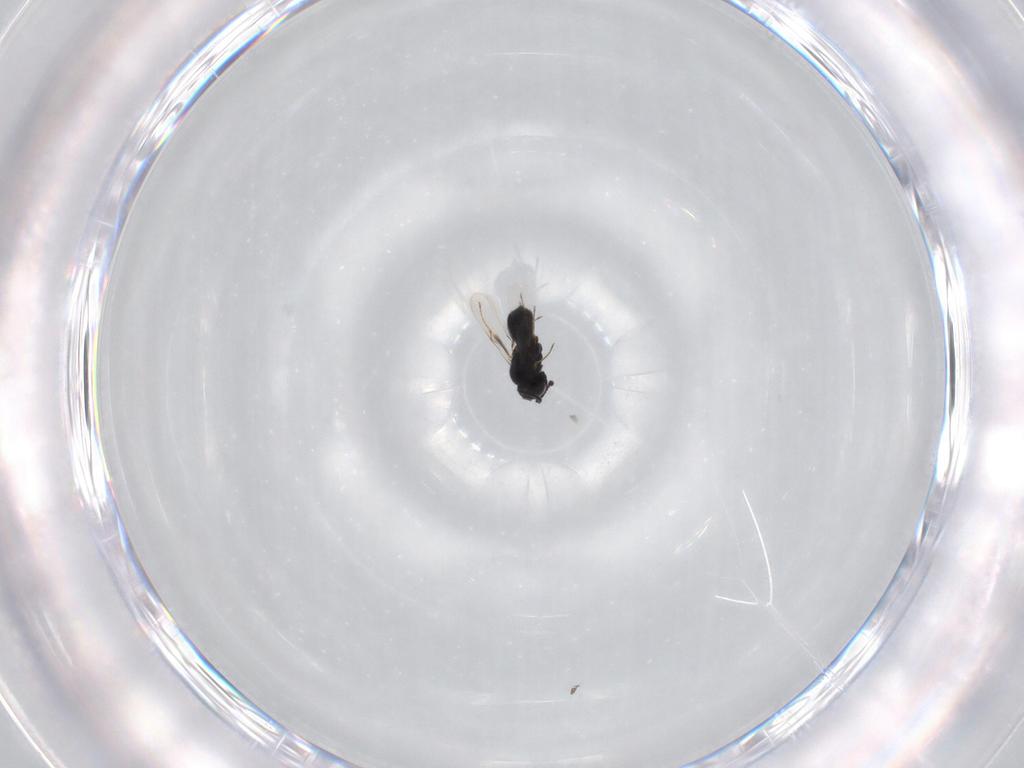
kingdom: Animalia
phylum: Arthropoda
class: Insecta
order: Hymenoptera
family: Scelionidae
